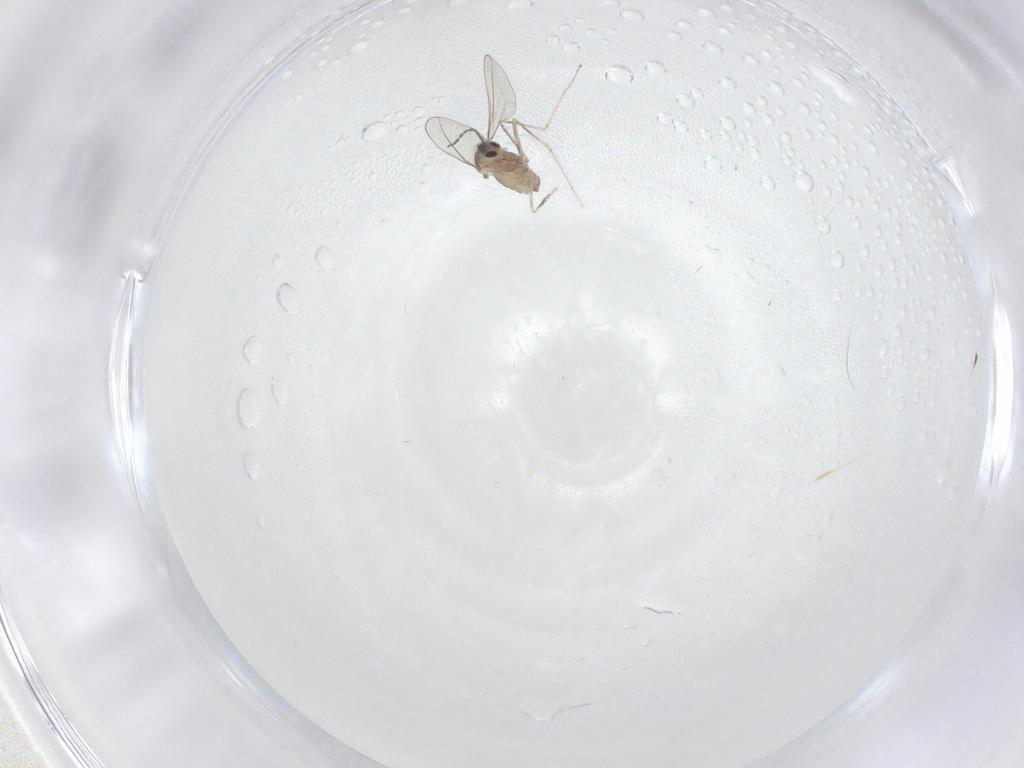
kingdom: Animalia
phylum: Arthropoda
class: Insecta
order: Diptera
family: Cecidomyiidae
